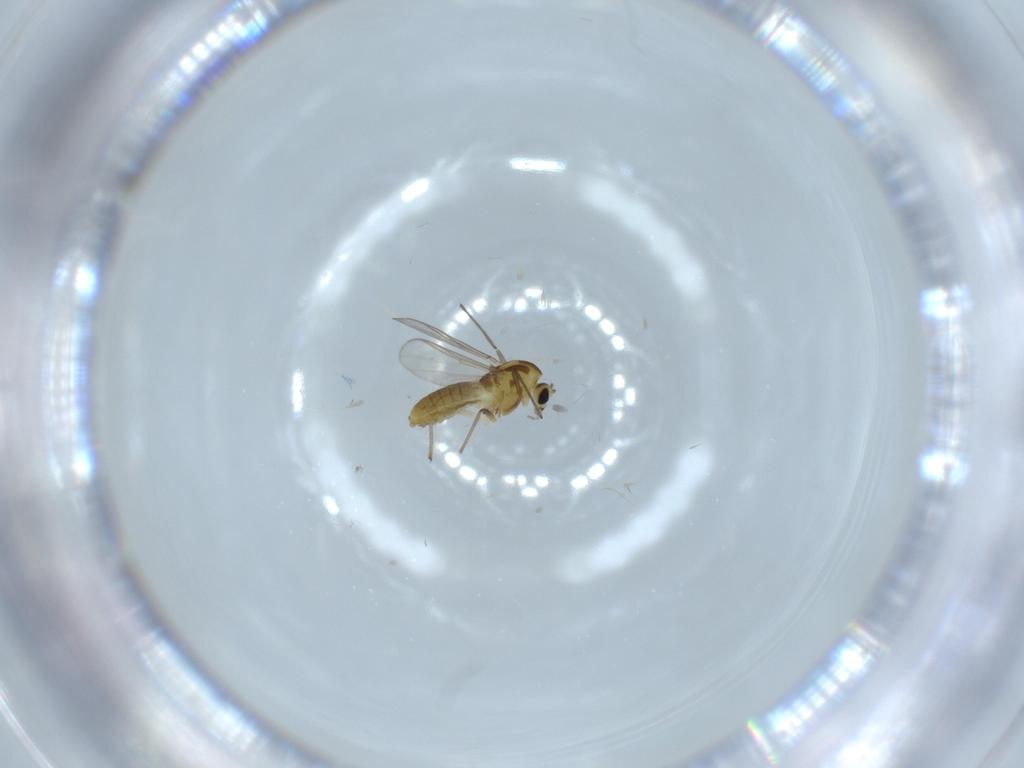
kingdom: Animalia
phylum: Arthropoda
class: Insecta
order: Diptera
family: Sciaridae
